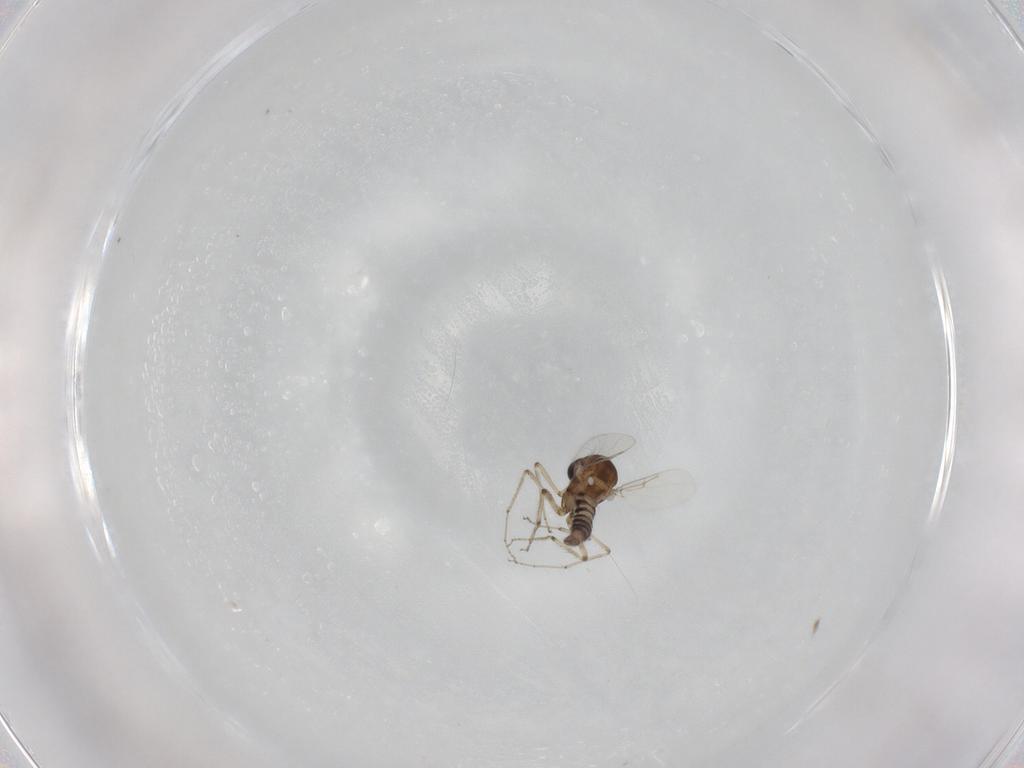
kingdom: Animalia
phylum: Arthropoda
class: Insecta
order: Diptera
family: Ceratopogonidae
